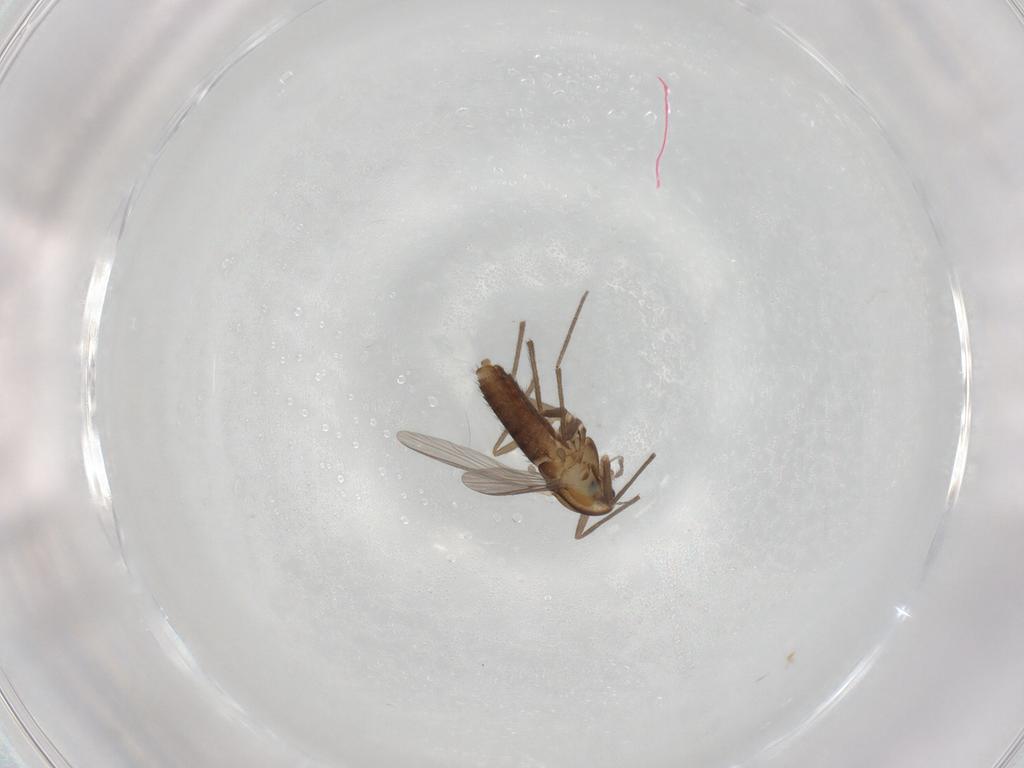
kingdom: Animalia
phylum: Arthropoda
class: Insecta
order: Diptera
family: Chironomidae
